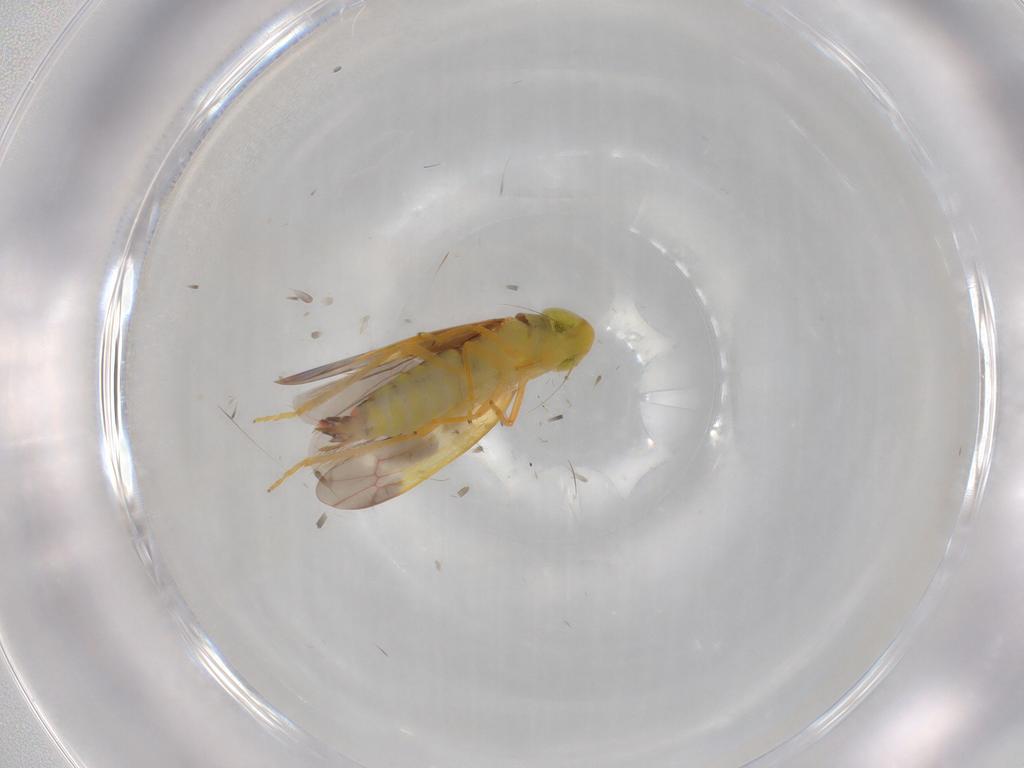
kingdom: Animalia
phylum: Arthropoda
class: Insecta
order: Hemiptera
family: Cicadellidae
